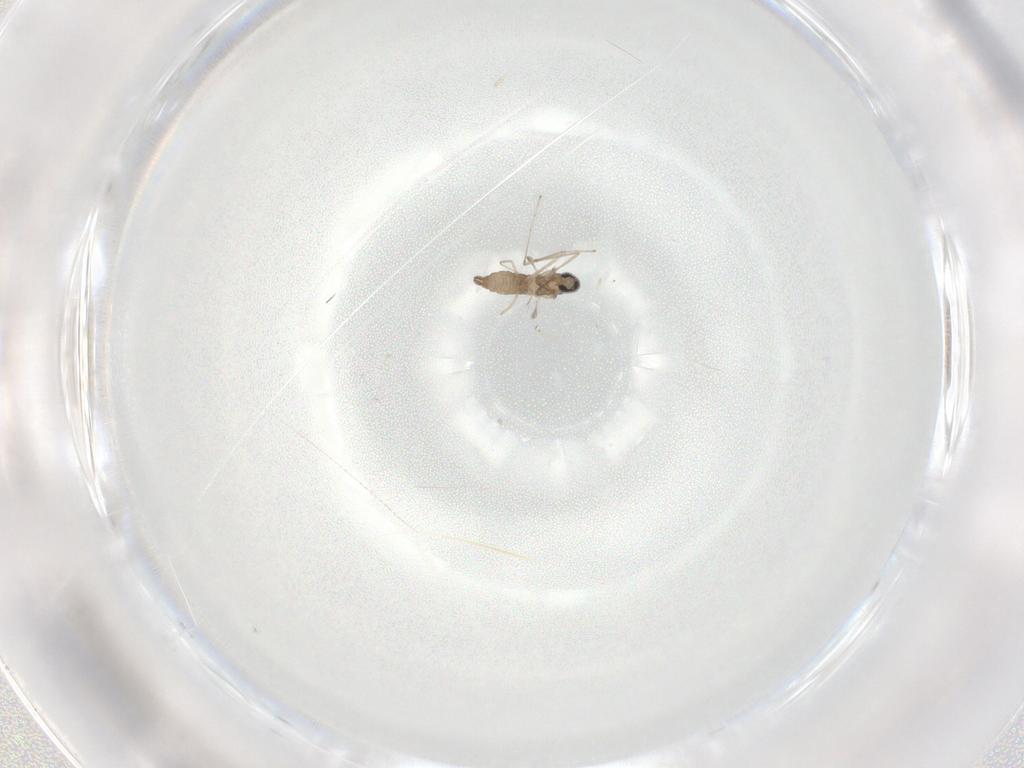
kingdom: Animalia
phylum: Arthropoda
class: Insecta
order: Diptera
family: Cecidomyiidae
